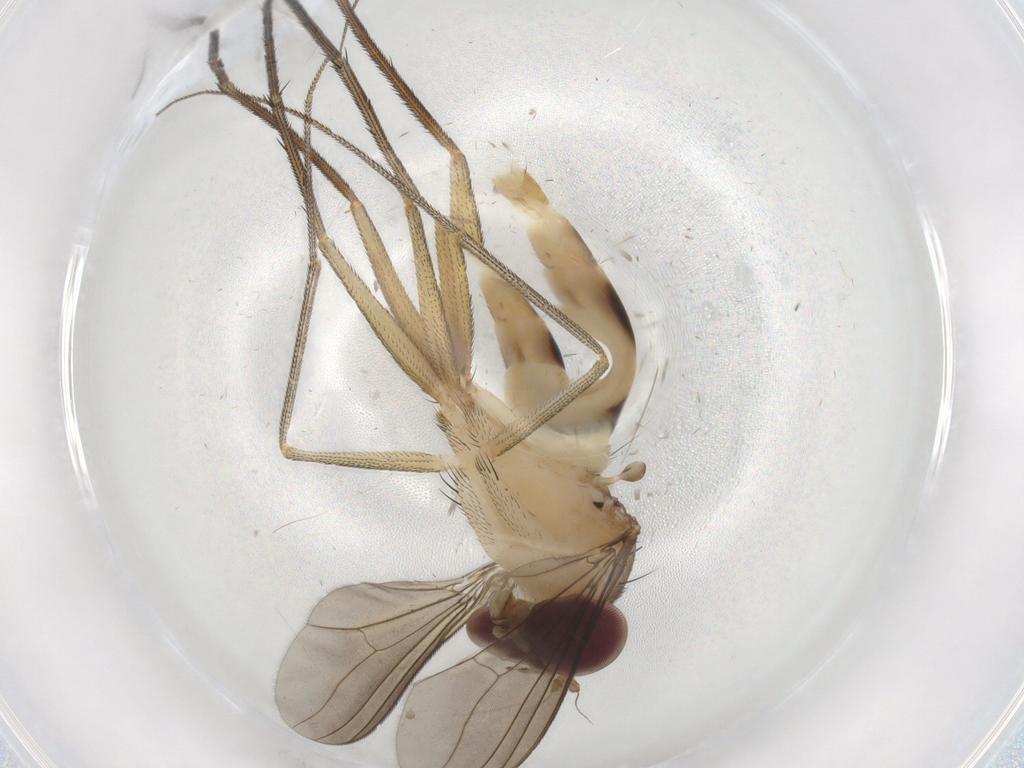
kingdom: Animalia
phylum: Arthropoda
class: Insecta
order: Diptera
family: Dolichopodidae
